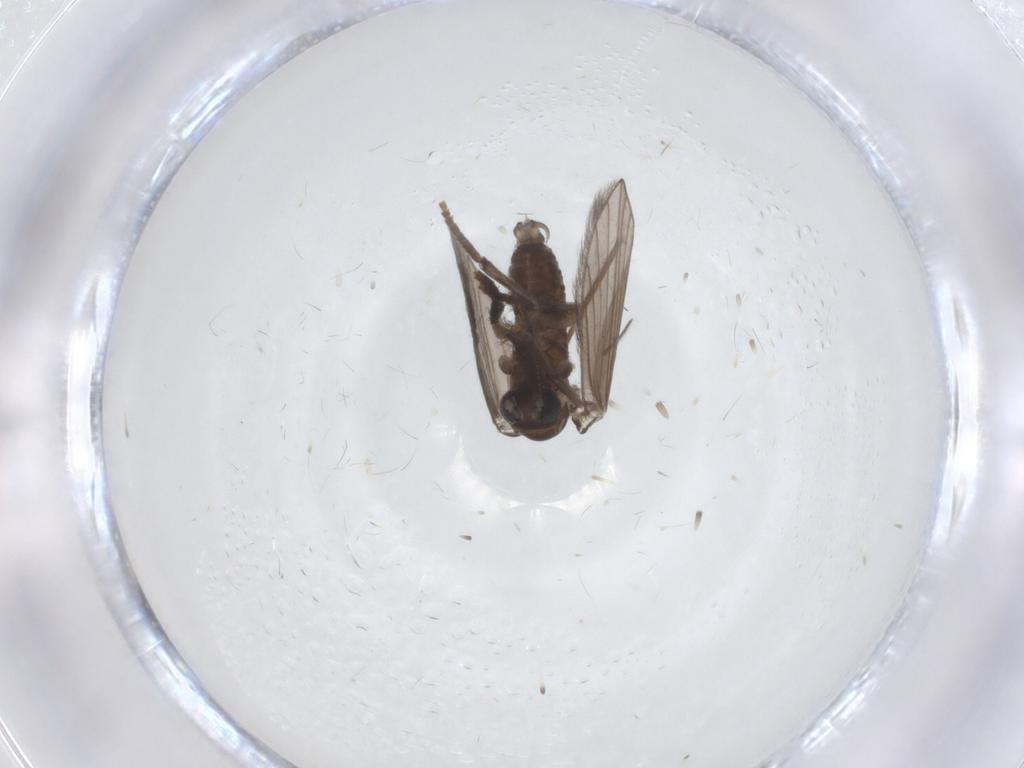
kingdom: Animalia
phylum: Arthropoda
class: Insecta
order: Diptera
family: Psychodidae
